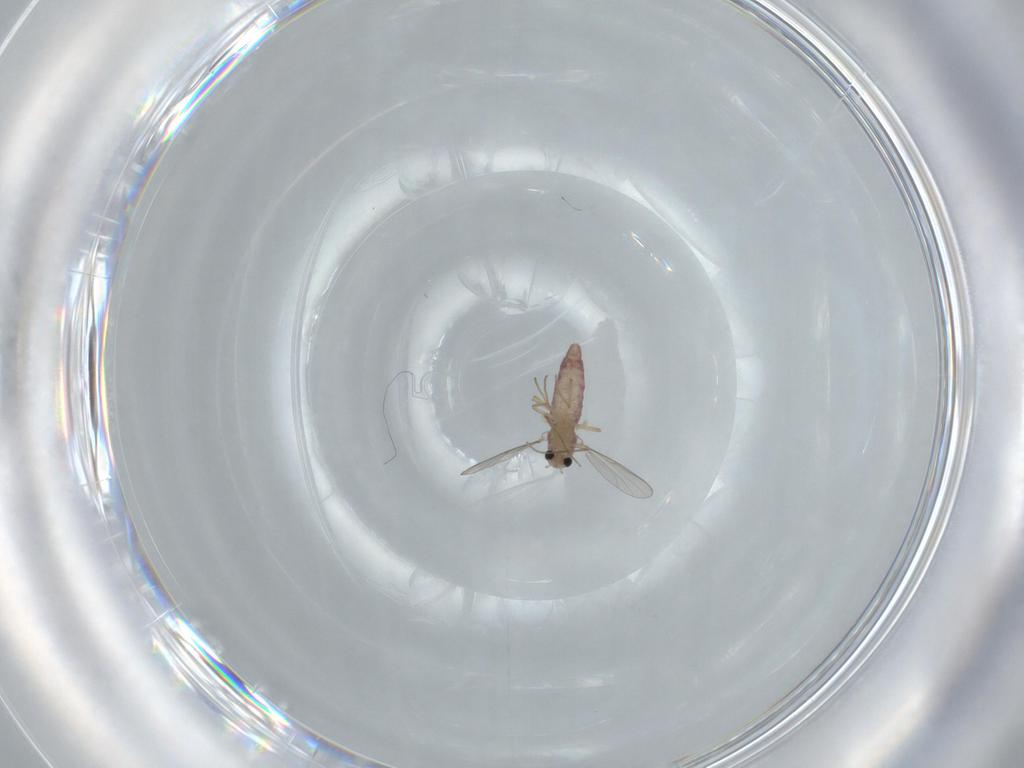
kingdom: Animalia
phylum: Arthropoda
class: Insecta
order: Diptera
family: Chironomidae
